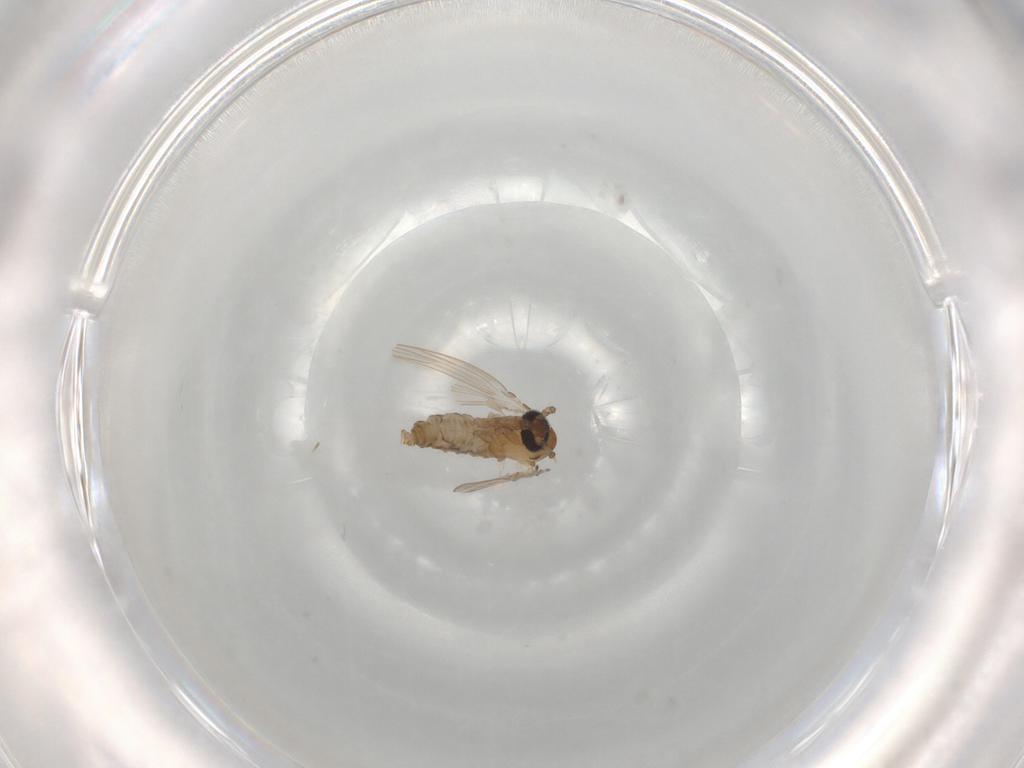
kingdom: Animalia
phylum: Arthropoda
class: Insecta
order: Diptera
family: Psychodidae
